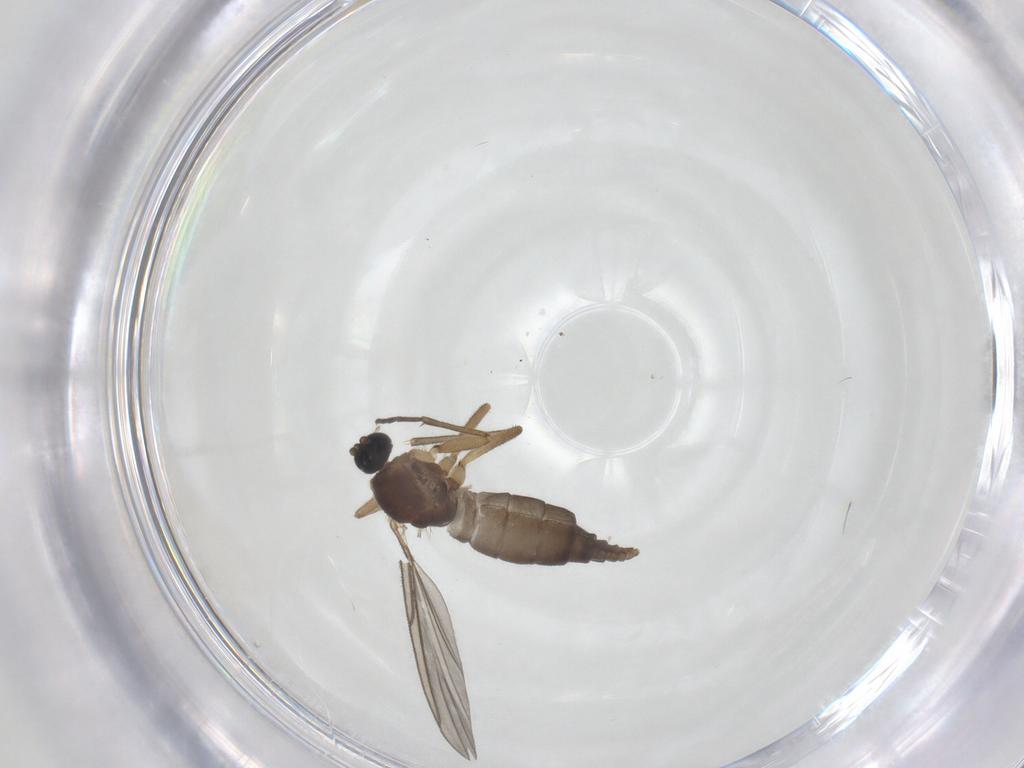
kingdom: Animalia
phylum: Arthropoda
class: Insecta
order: Diptera
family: Sciaridae
